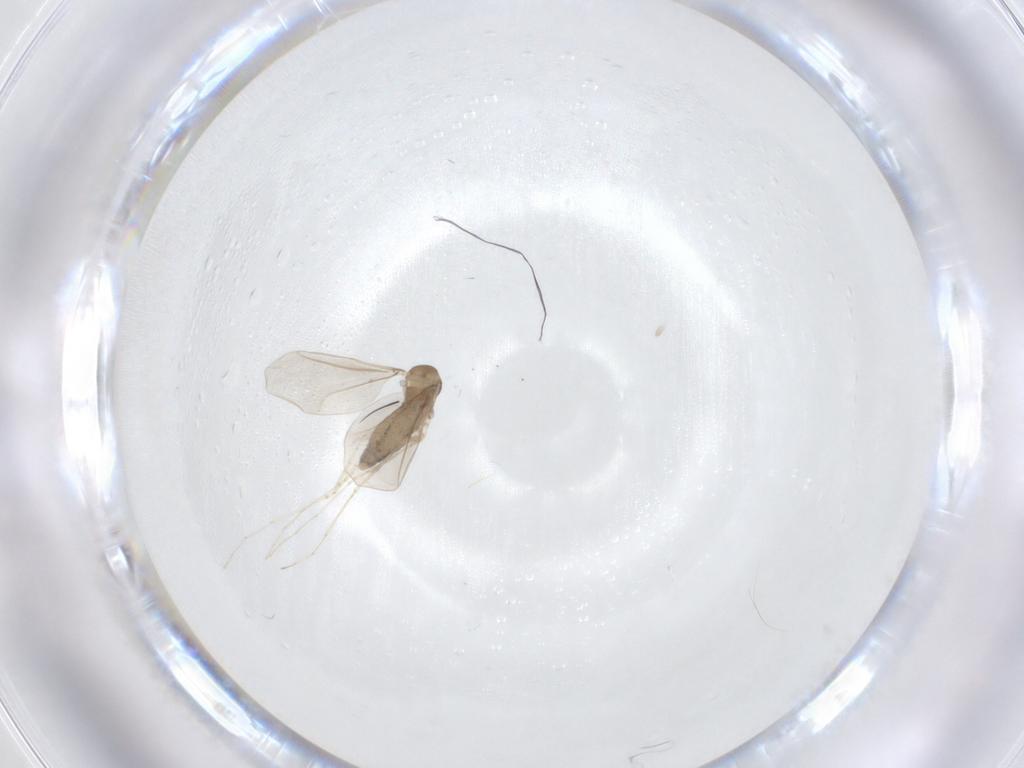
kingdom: Animalia
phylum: Arthropoda
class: Insecta
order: Diptera
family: Cecidomyiidae
